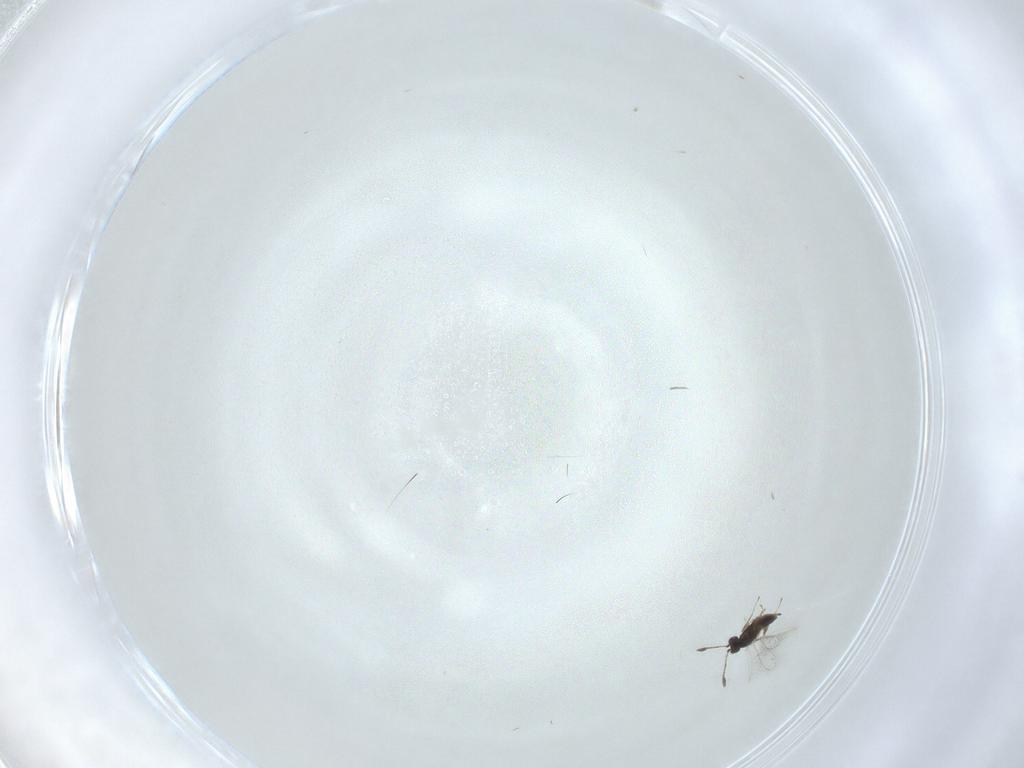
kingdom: Animalia
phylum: Arthropoda
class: Insecta
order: Hymenoptera
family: Mymaridae
